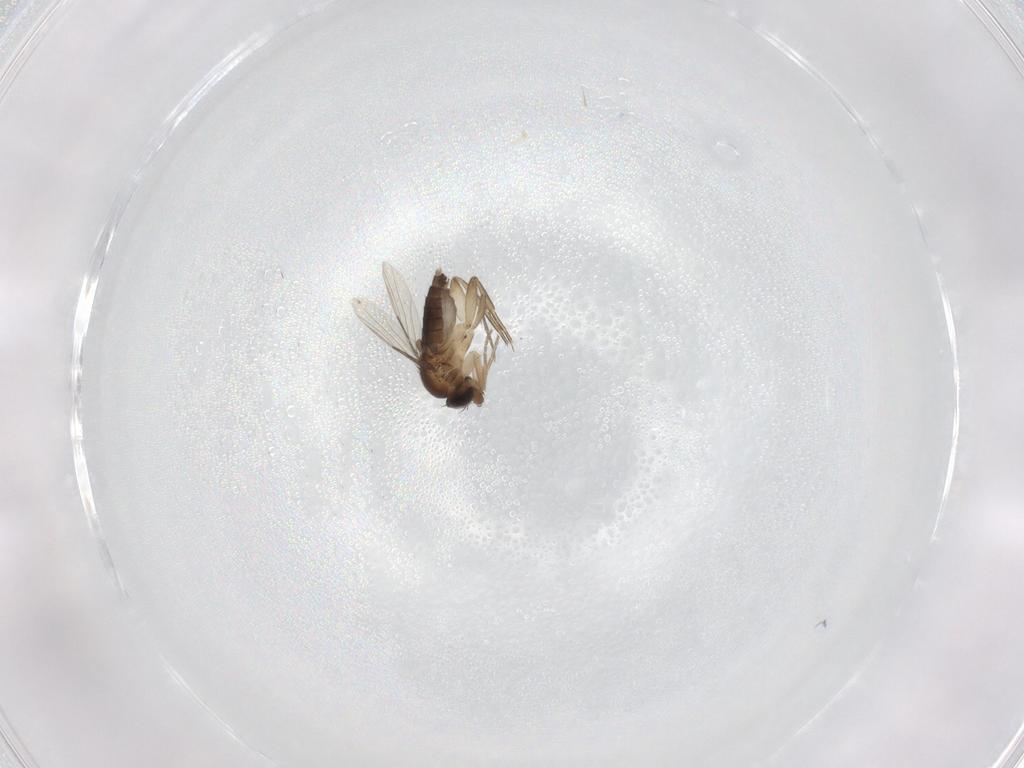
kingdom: Animalia
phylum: Arthropoda
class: Insecta
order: Diptera
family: Phoridae
